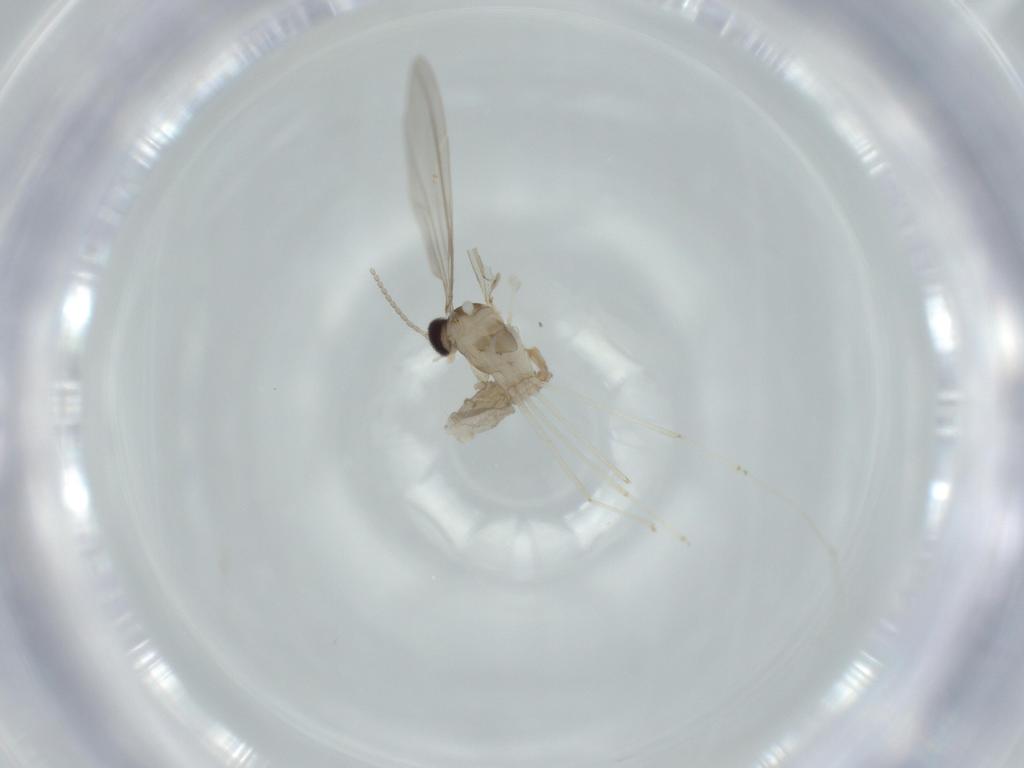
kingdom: Animalia
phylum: Arthropoda
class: Insecta
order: Diptera
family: Cecidomyiidae
